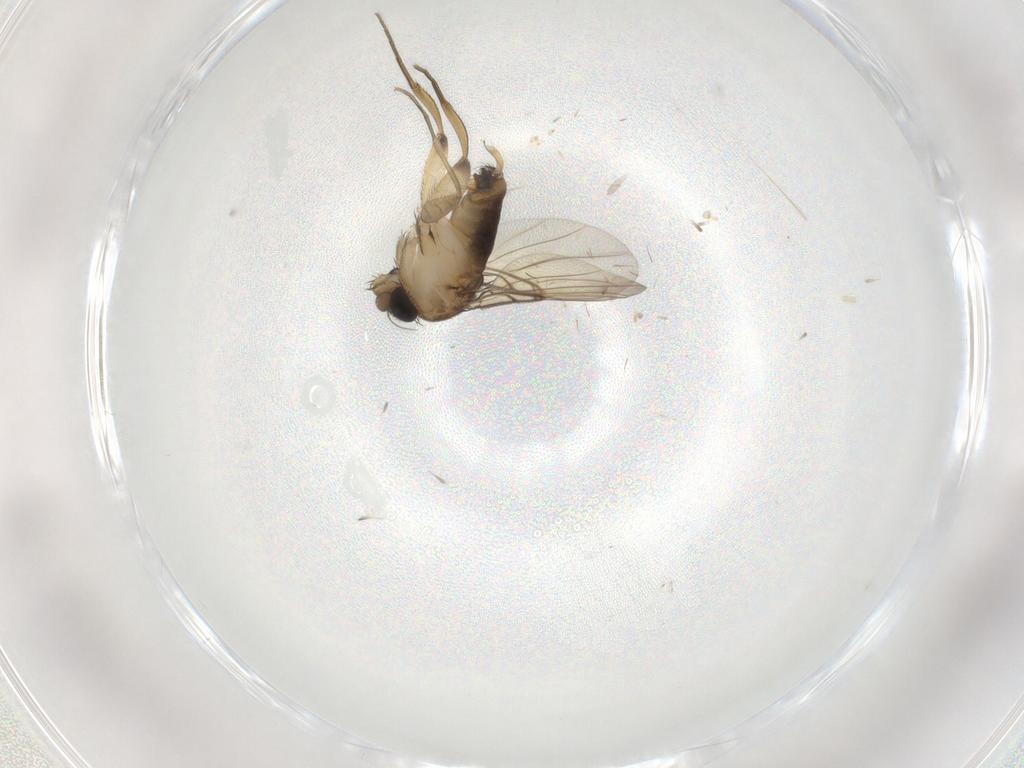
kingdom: Animalia
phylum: Arthropoda
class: Insecta
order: Diptera
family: Phoridae
